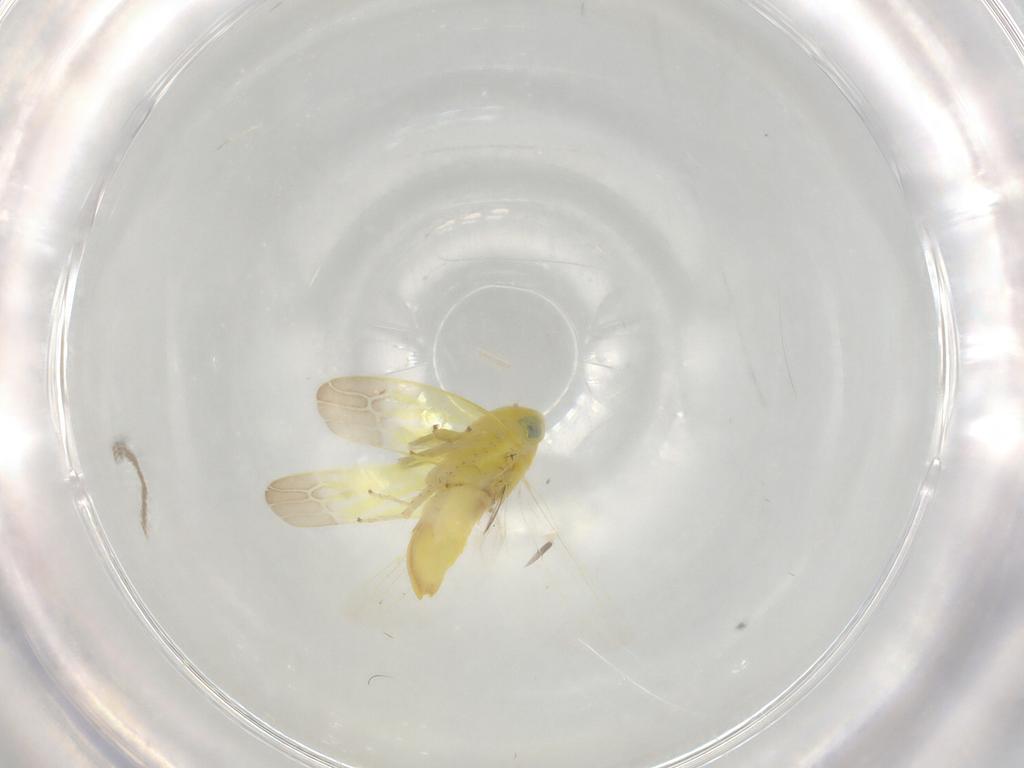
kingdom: Animalia
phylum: Arthropoda
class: Insecta
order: Hemiptera
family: Cicadellidae
